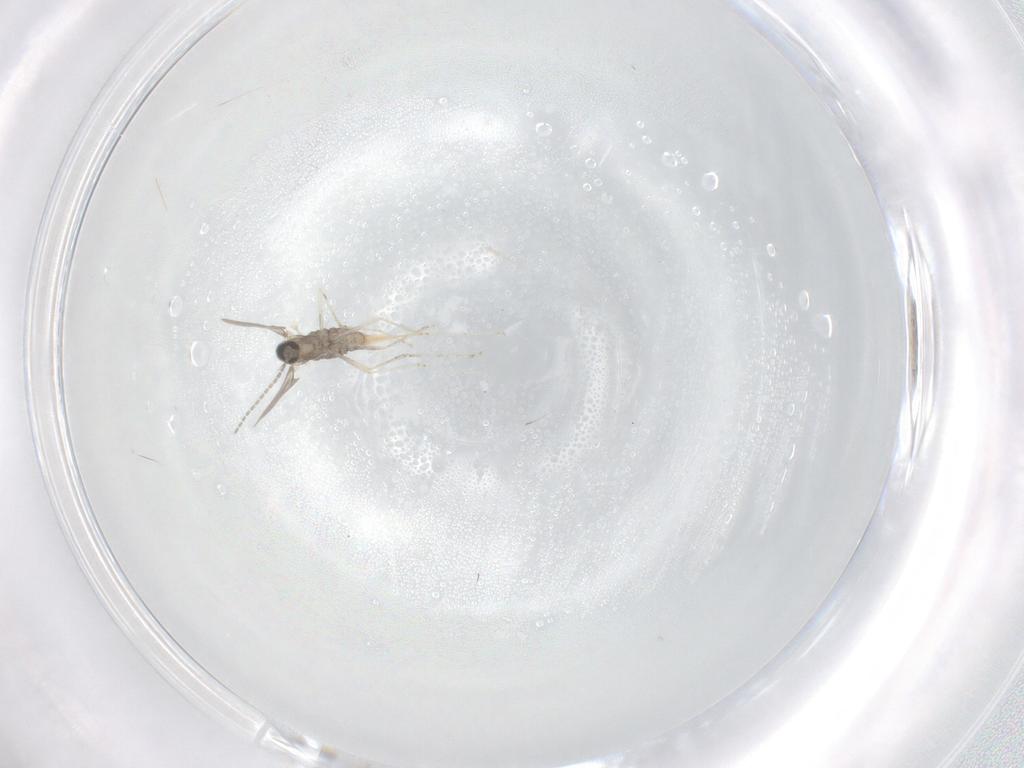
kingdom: Animalia
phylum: Arthropoda
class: Insecta
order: Diptera
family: Cecidomyiidae
